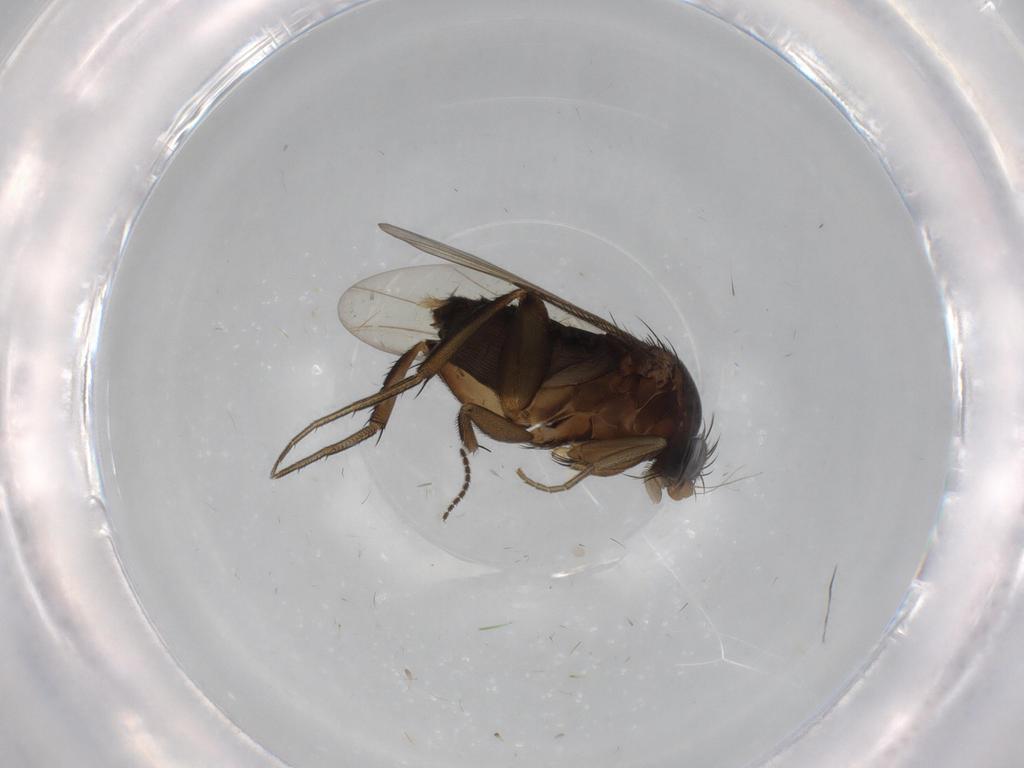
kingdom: Animalia
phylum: Arthropoda
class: Insecta
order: Diptera
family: Phoridae
